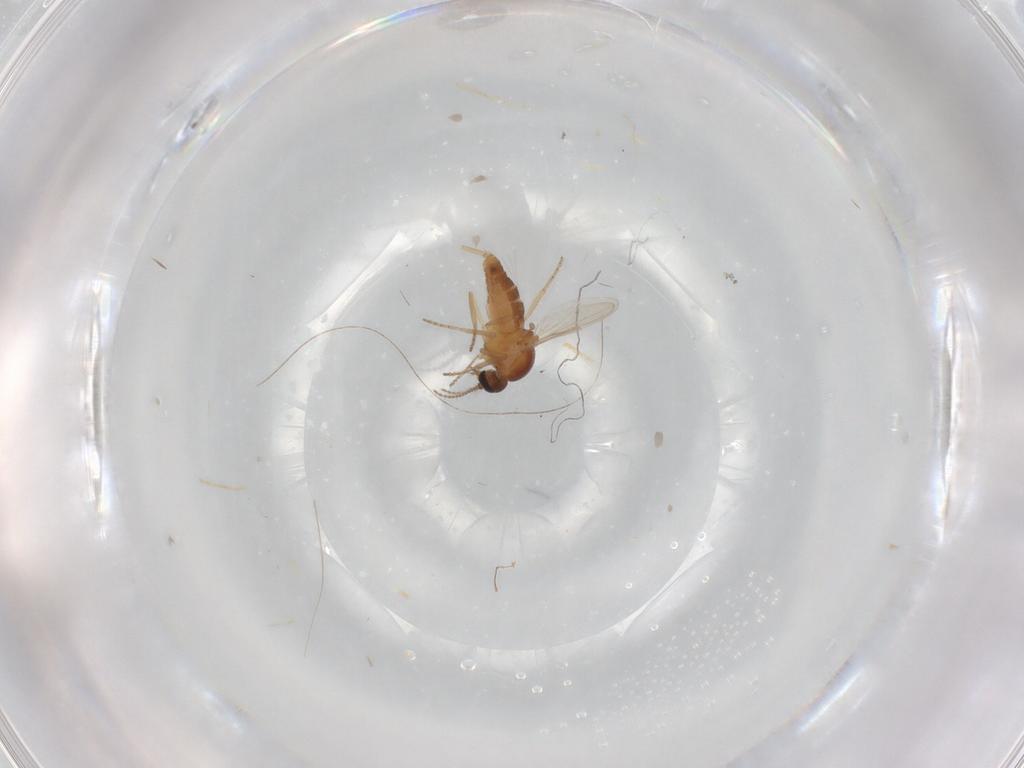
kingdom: Animalia
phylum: Arthropoda
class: Insecta
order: Diptera
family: Ceratopogonidae
